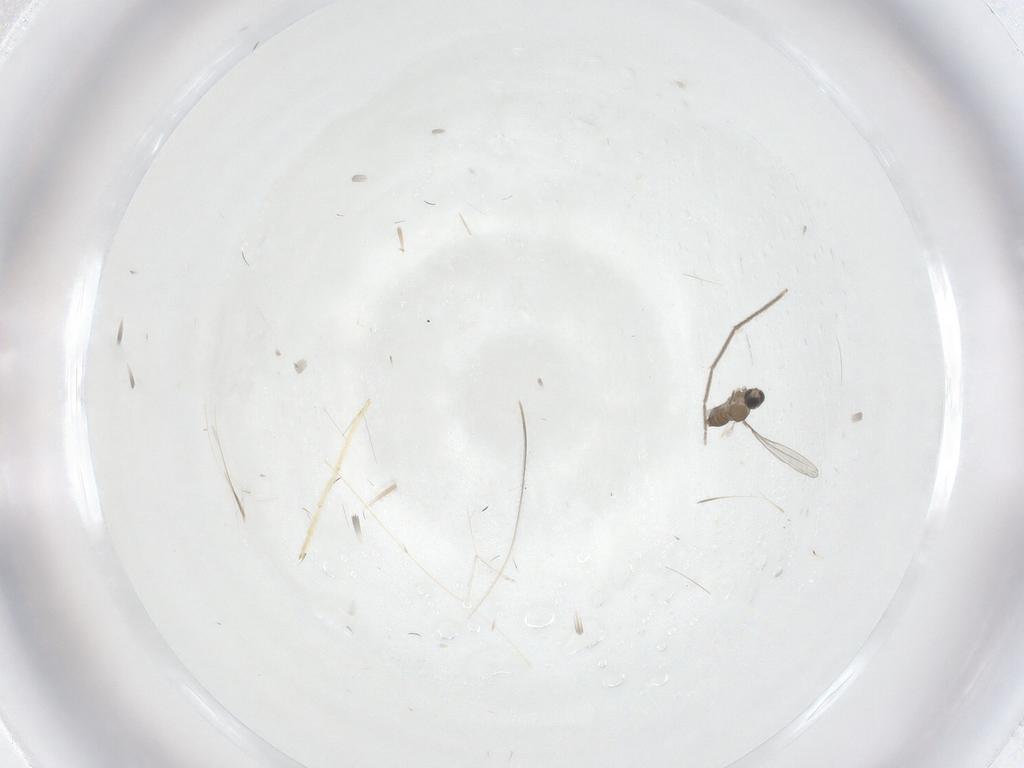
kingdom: Animalia
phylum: Arthropoda
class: Insecta
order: Diptera
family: Chironomidae
